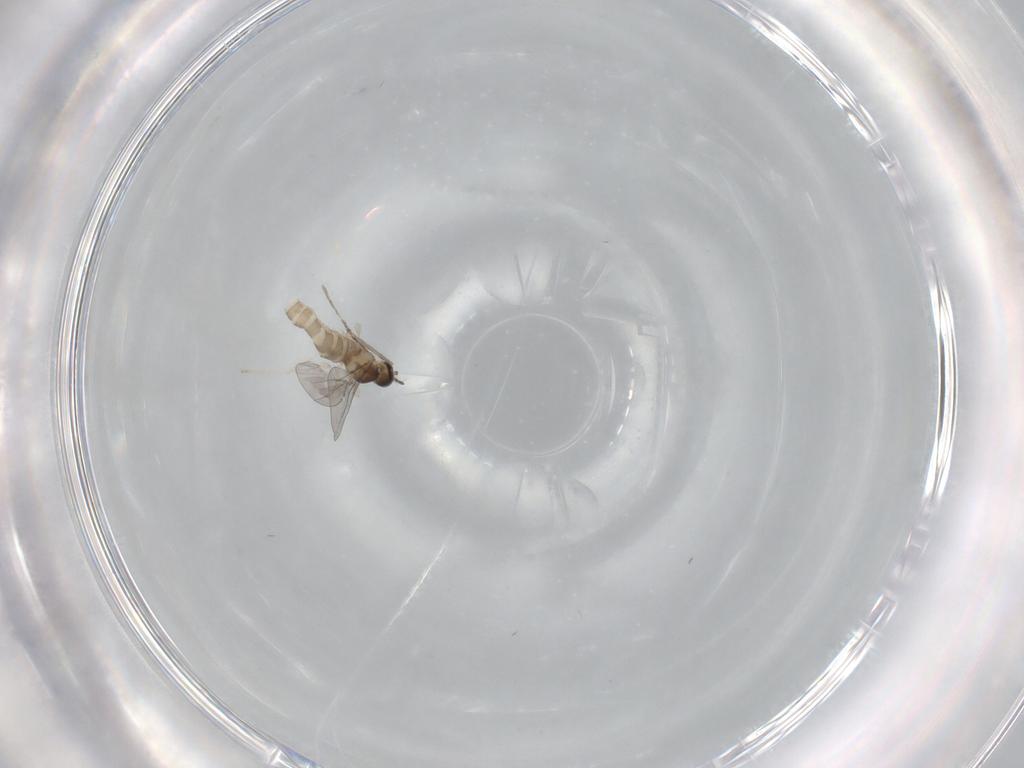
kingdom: Animalia
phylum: Arthropoda
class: Insecta
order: Diptera
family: Cecidomyiidae
